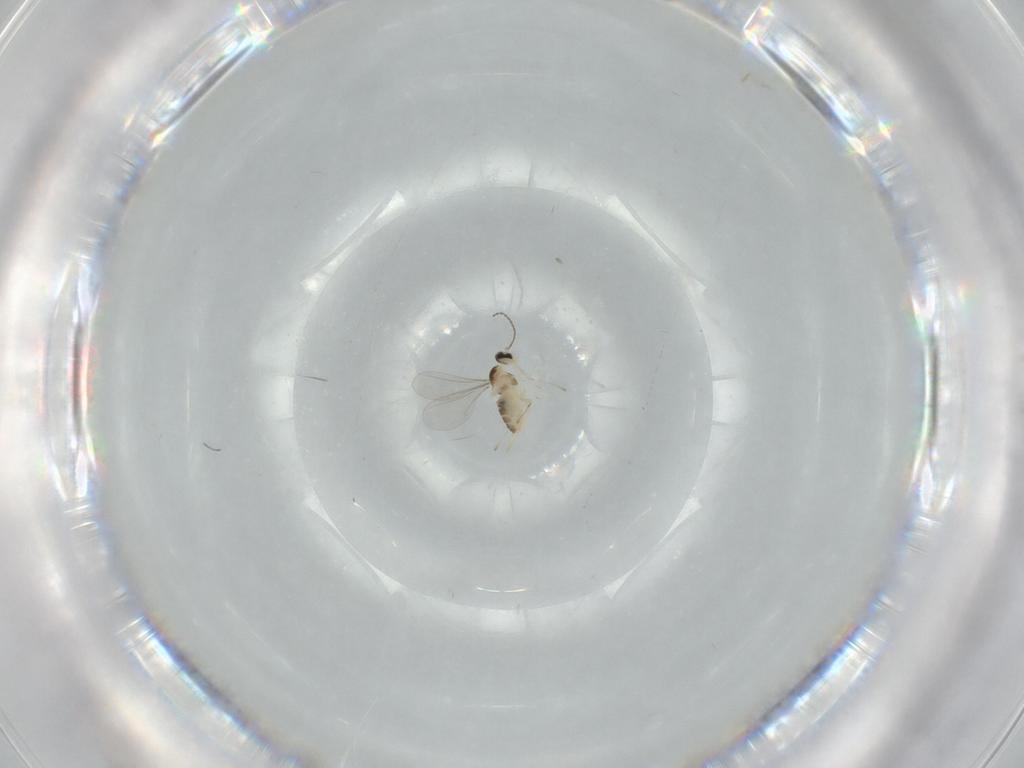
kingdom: Animalia
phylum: Arthropoda
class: Insecta
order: Diptera
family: Cecidomyiidae
